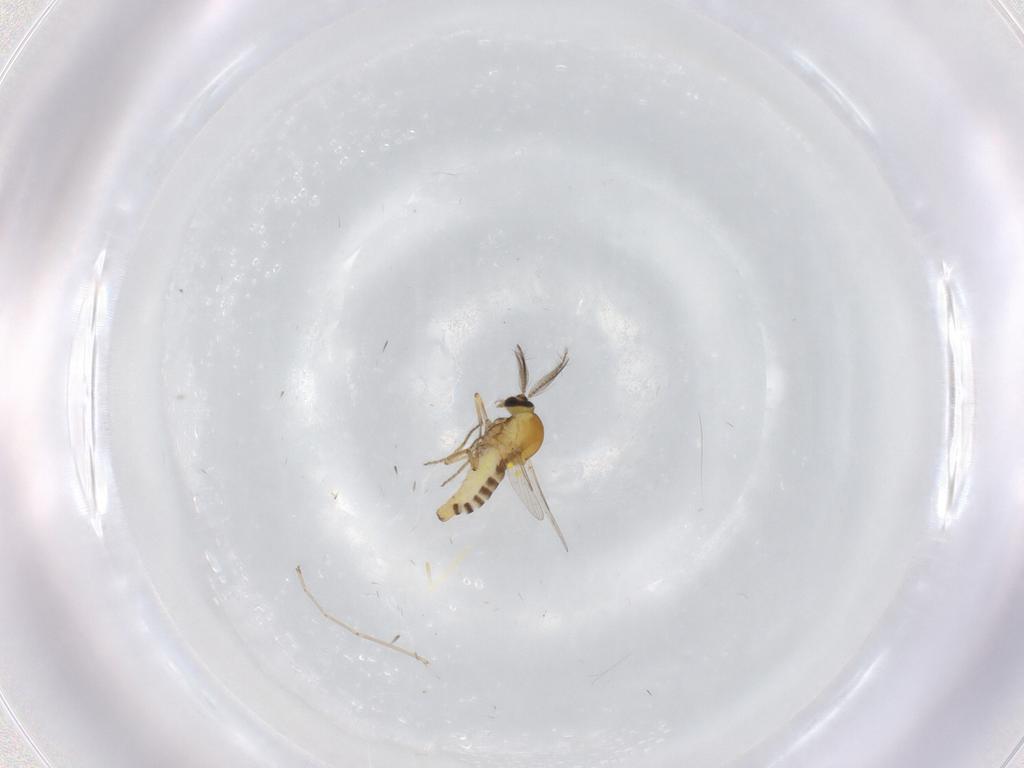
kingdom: Animalia
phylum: Arthropoda
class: Insecta
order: Diptera
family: Cecidomyiidae
